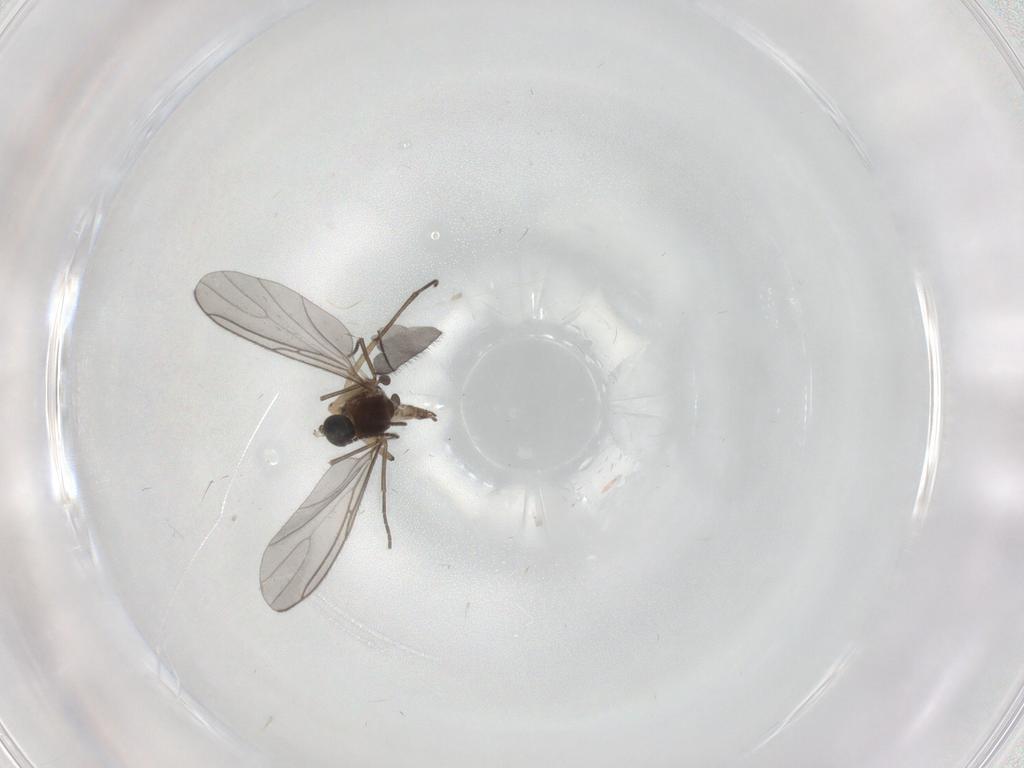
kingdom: Animalia
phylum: Arthropoda
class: Insecta
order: Diptera
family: Sciaridae
